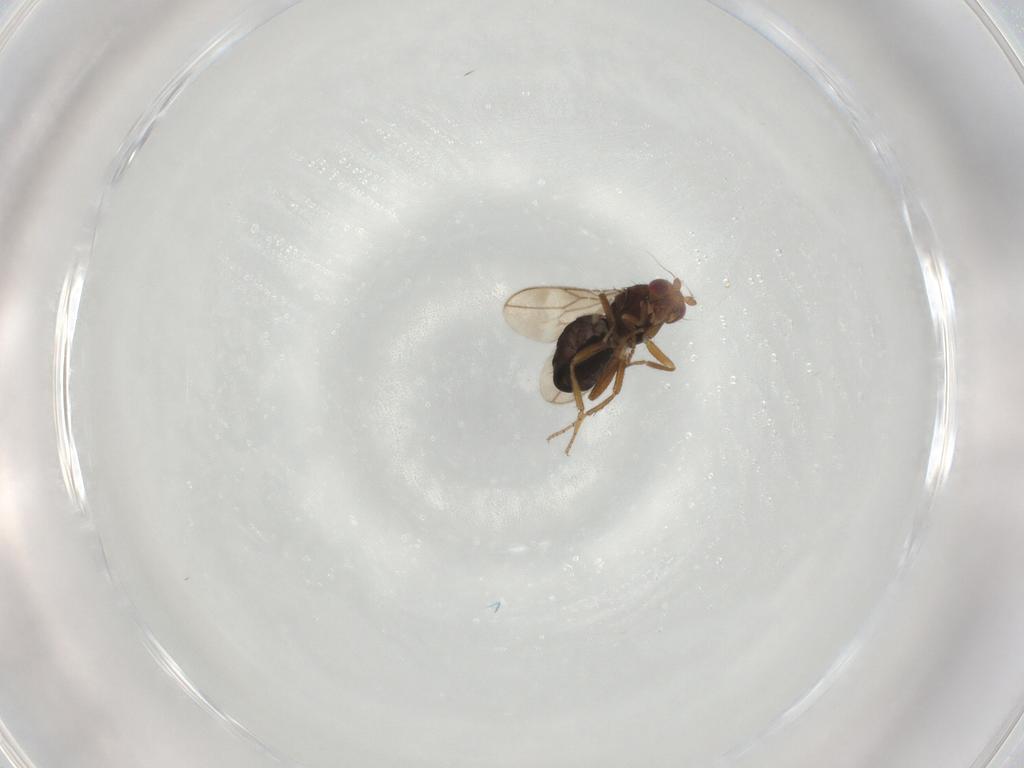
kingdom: Animalia
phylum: Arthropoda
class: Insecta
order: Diptera
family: Sphaeroceridae
